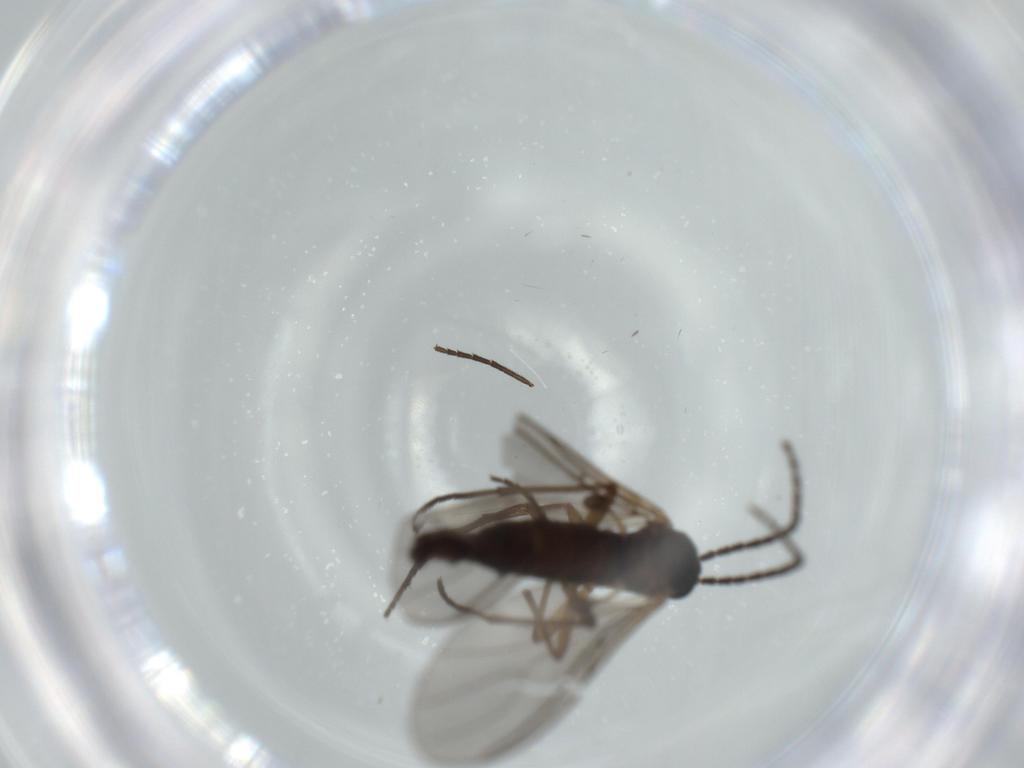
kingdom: Animalia
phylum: Arthropoda
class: Insecta
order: Diptera
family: Sciaridae
